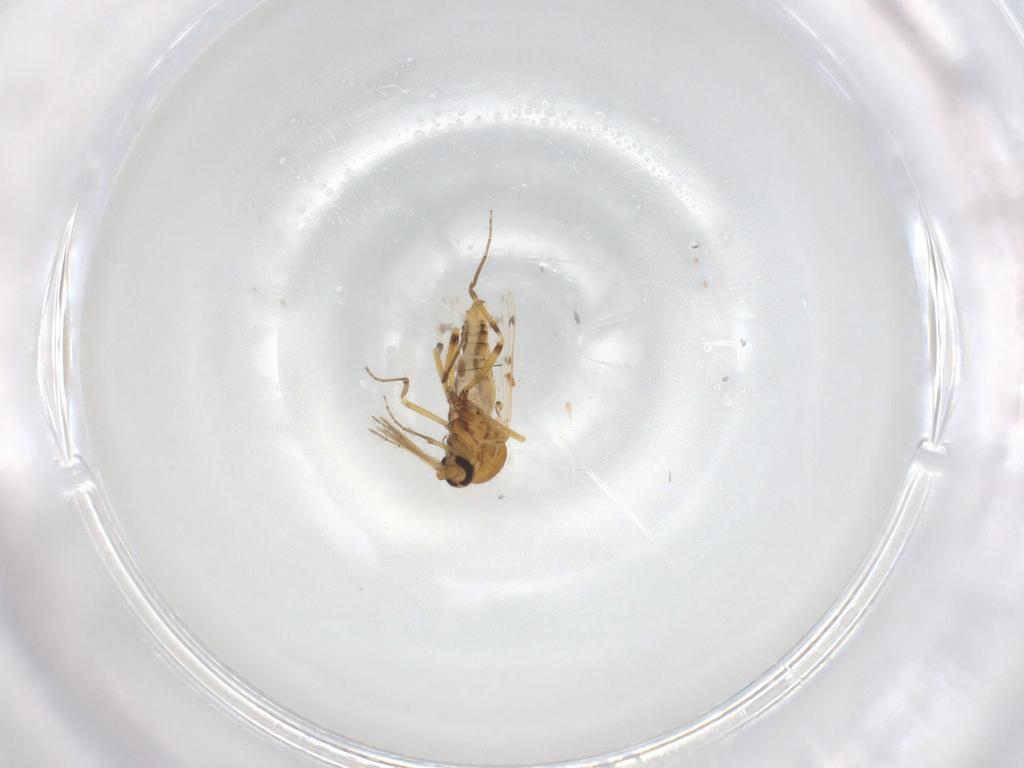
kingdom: Animalia
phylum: Arthropoda
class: Insecta
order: Diptera
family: Ceratopogonidae
